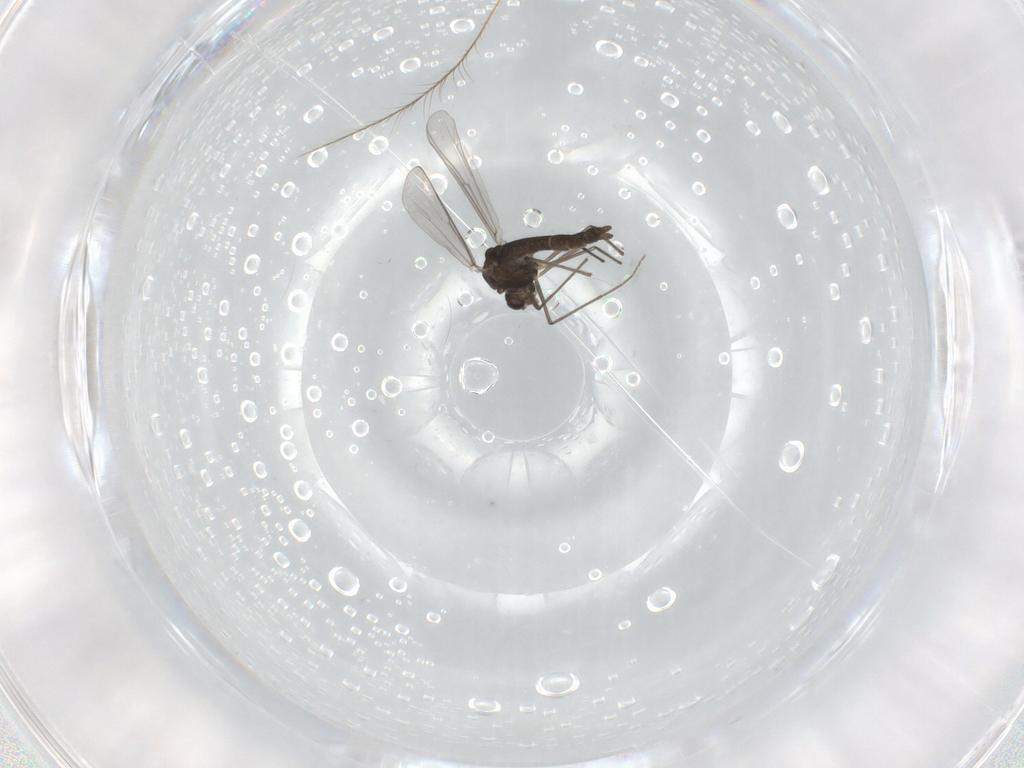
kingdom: Animalia
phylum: Arthropoda
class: Insecta
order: Diptera
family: Chironomidae
